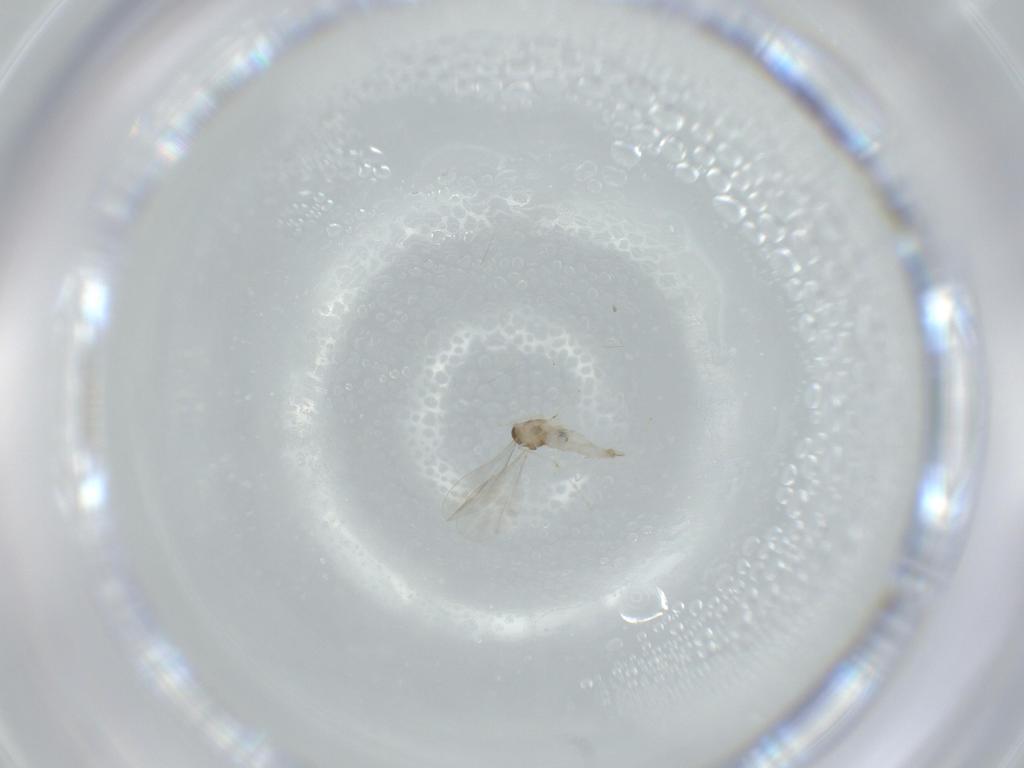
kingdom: Animalia
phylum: Arthropoda
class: Insecta
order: Diptera
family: Cecidomyiidae
